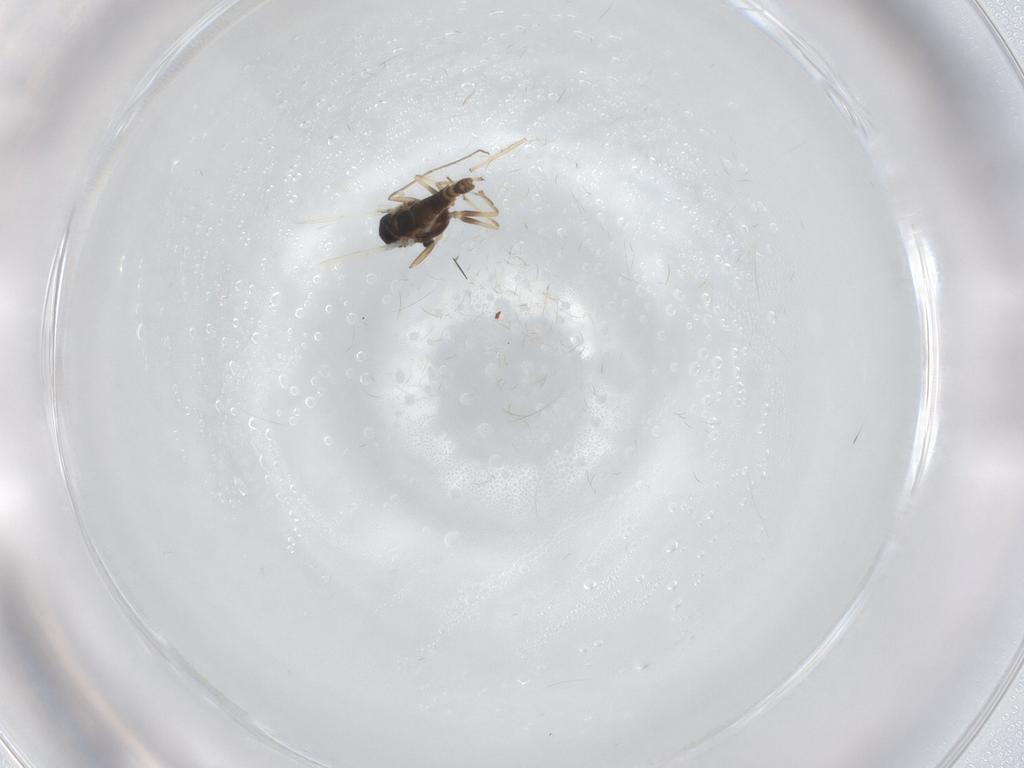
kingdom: Animalia
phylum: Arthropoda
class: Insecta
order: Diptera
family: Chironomidae
